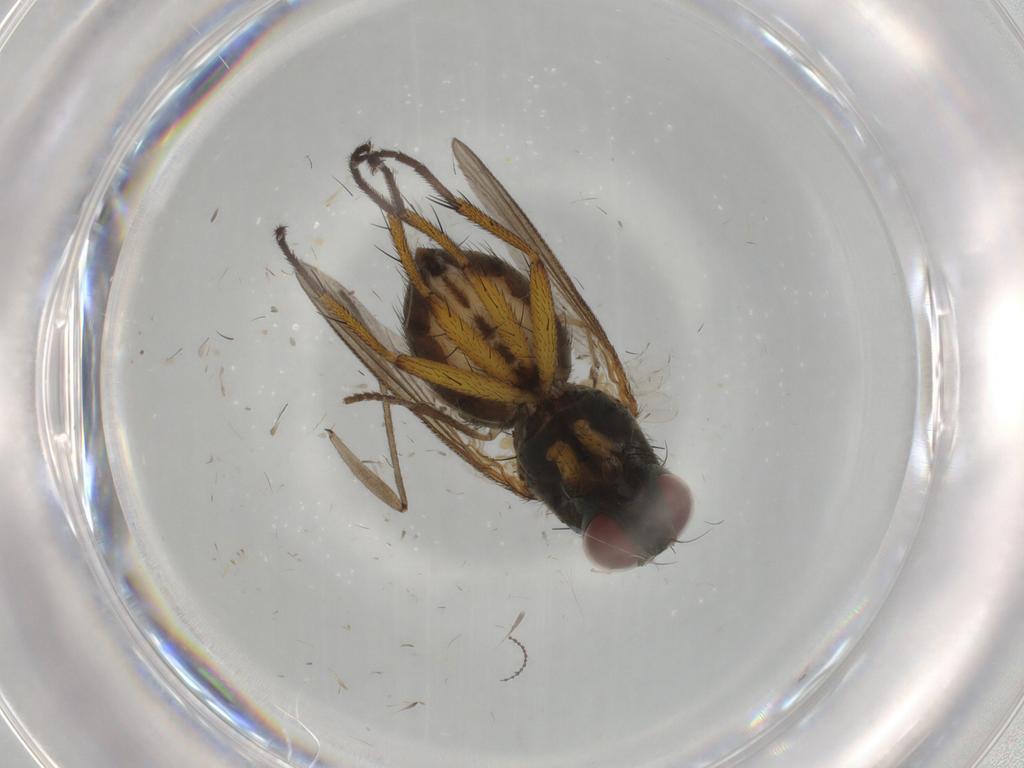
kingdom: Animalia
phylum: Arthropoda
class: Insecta
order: Diptera
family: Muscidae
